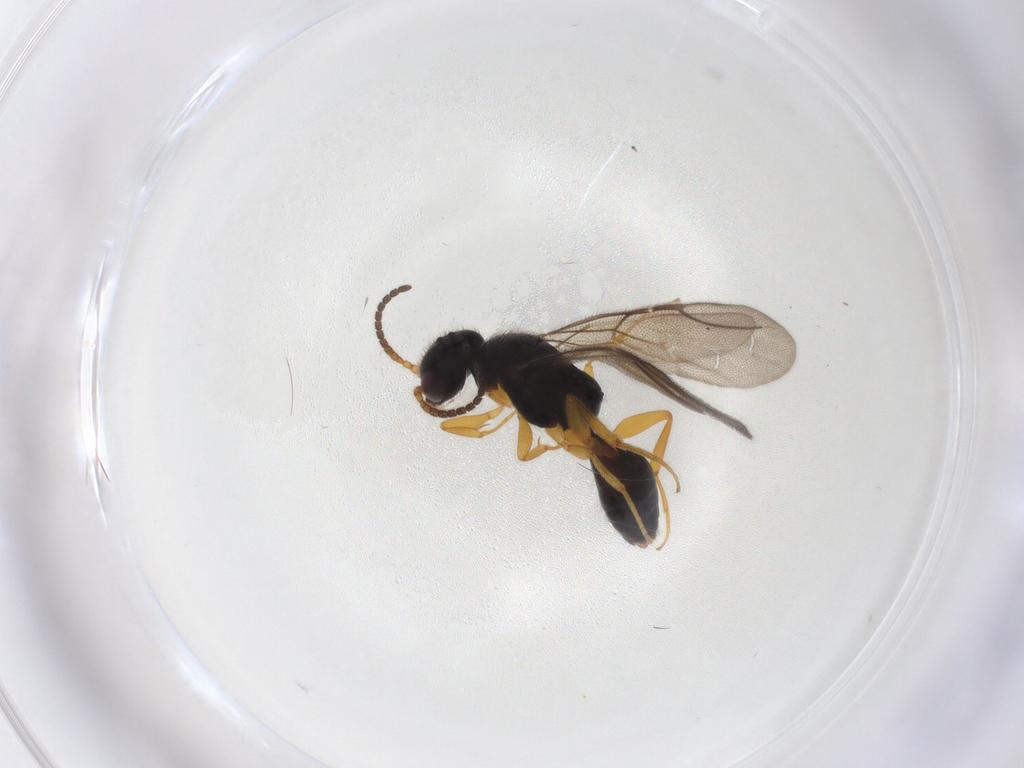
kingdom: Animalia
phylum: Arthropoda
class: Insecta
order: Hymenoptera
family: Bethylidae
